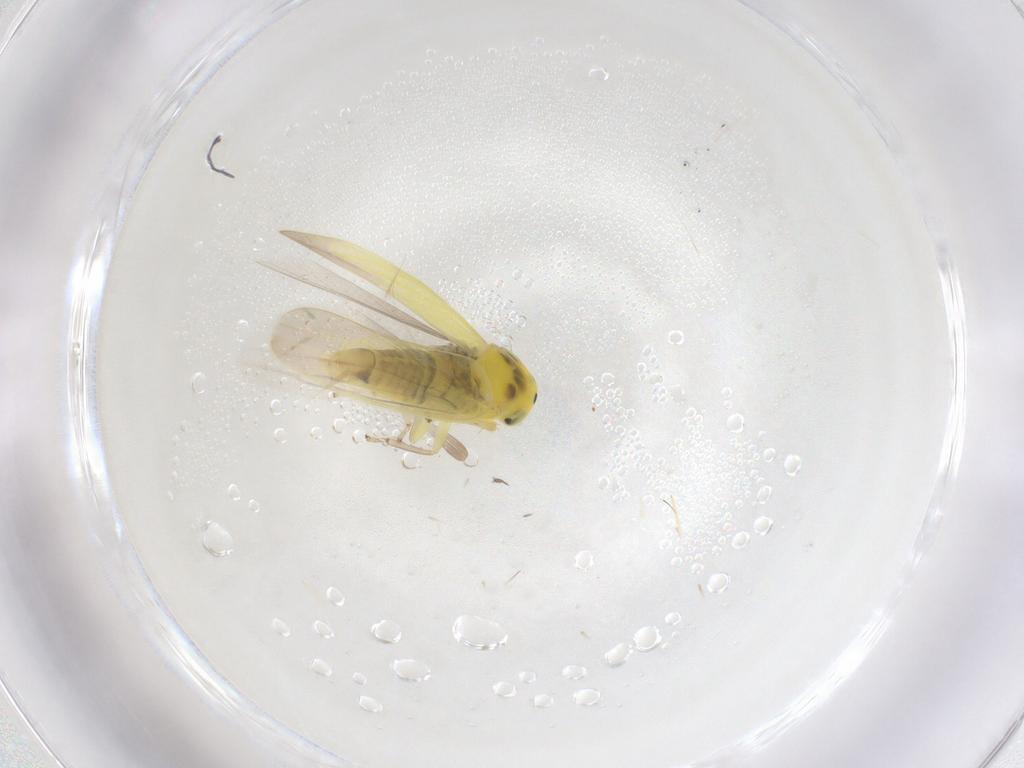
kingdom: Animalia
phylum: Arthropoda
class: Insecta
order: Hemiptera
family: Cicadellidae
